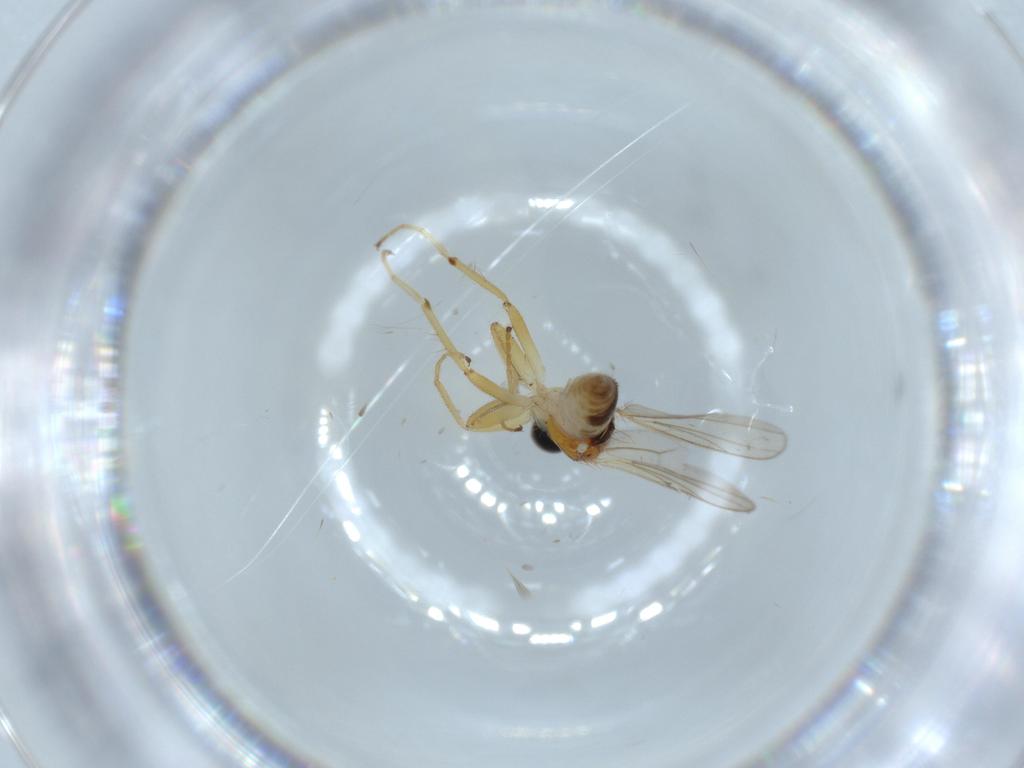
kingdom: Animalia
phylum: Arthropoda
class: Insecta
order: Diptera
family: Hybotidae
